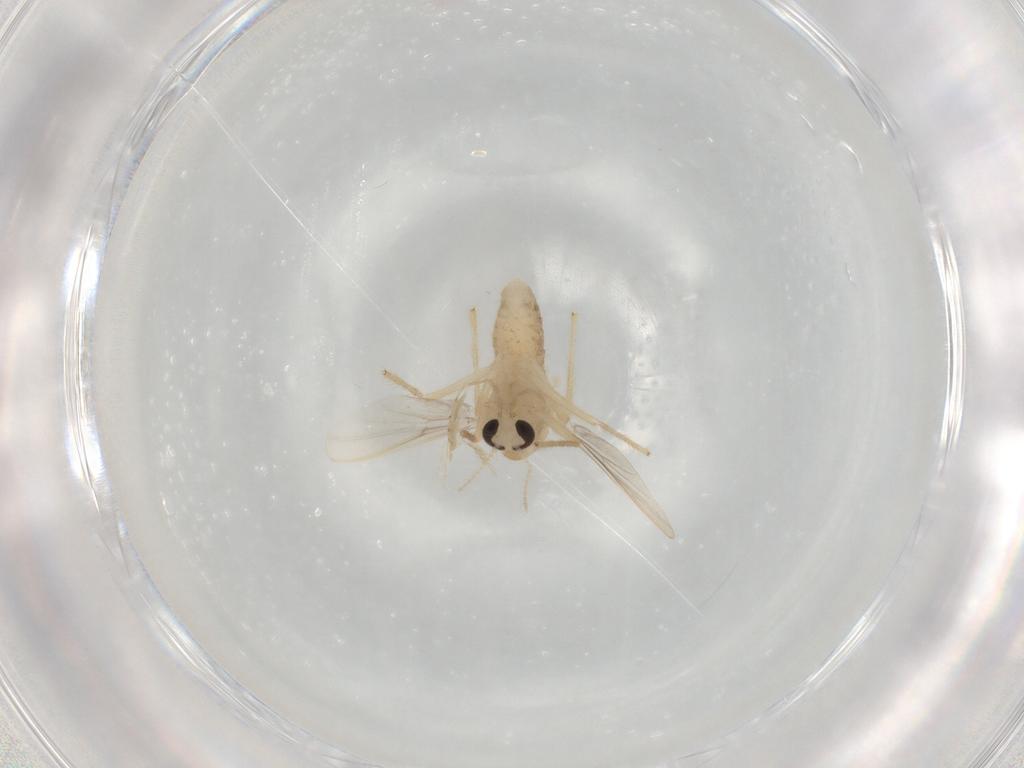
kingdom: Animalia
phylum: Arthropoda
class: Insecta
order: Diptera
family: Chironomidae
